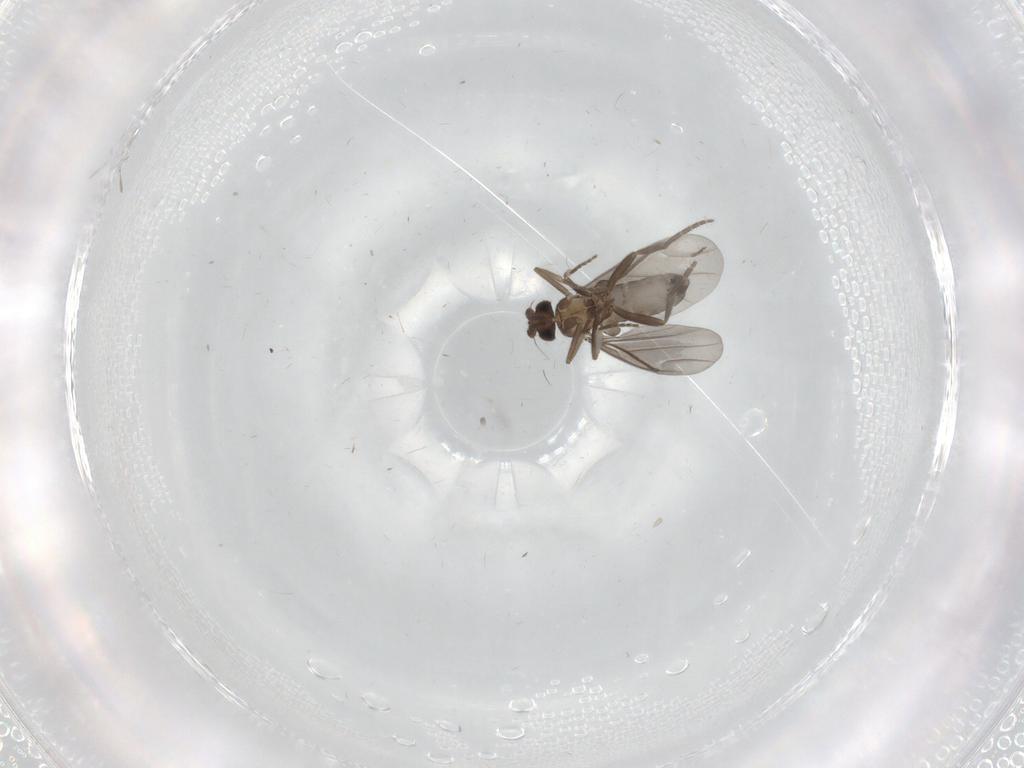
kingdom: Animalia
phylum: Arthropoda
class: Insecta
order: Diptera
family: Phoridae
